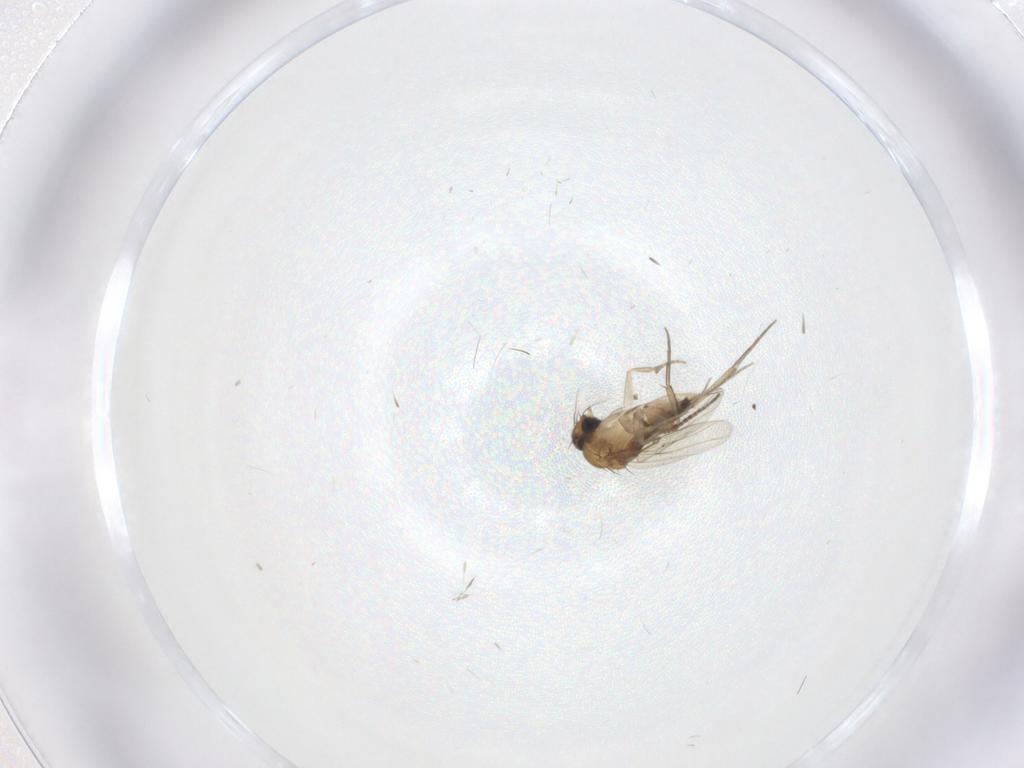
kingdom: Animalia
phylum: Arthropoda
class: Insecta
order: Diptera
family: Phoridae
